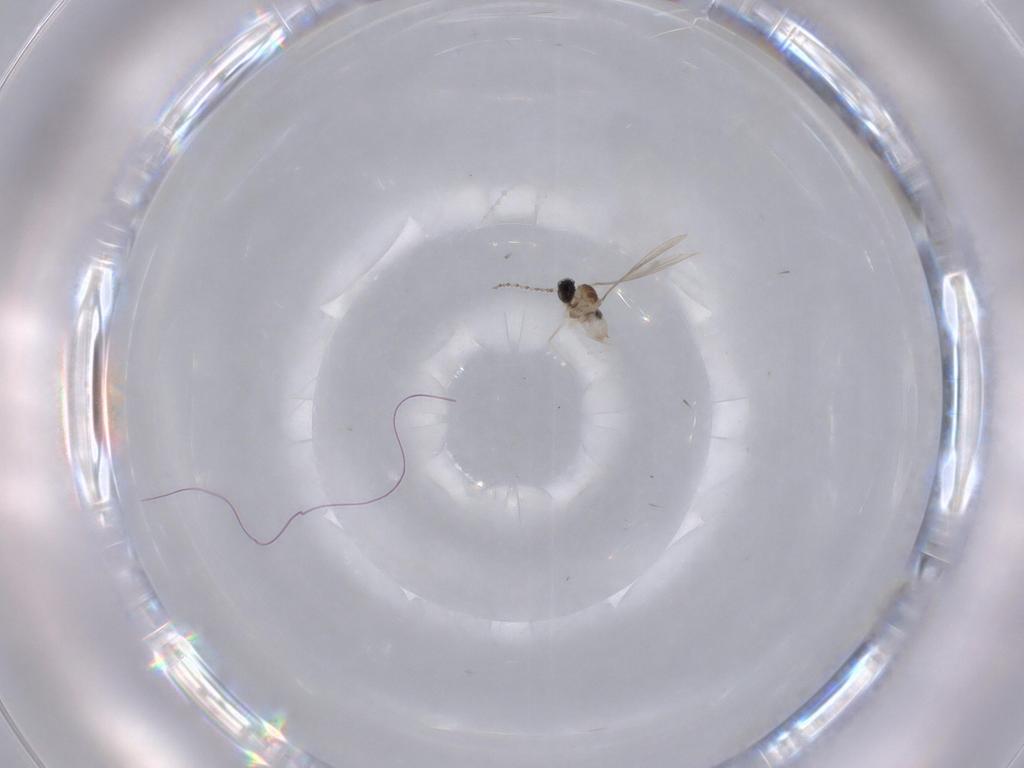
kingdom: Animalia
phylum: Arthropoda
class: Insecta
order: Diptera
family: Cecidomyiidae
